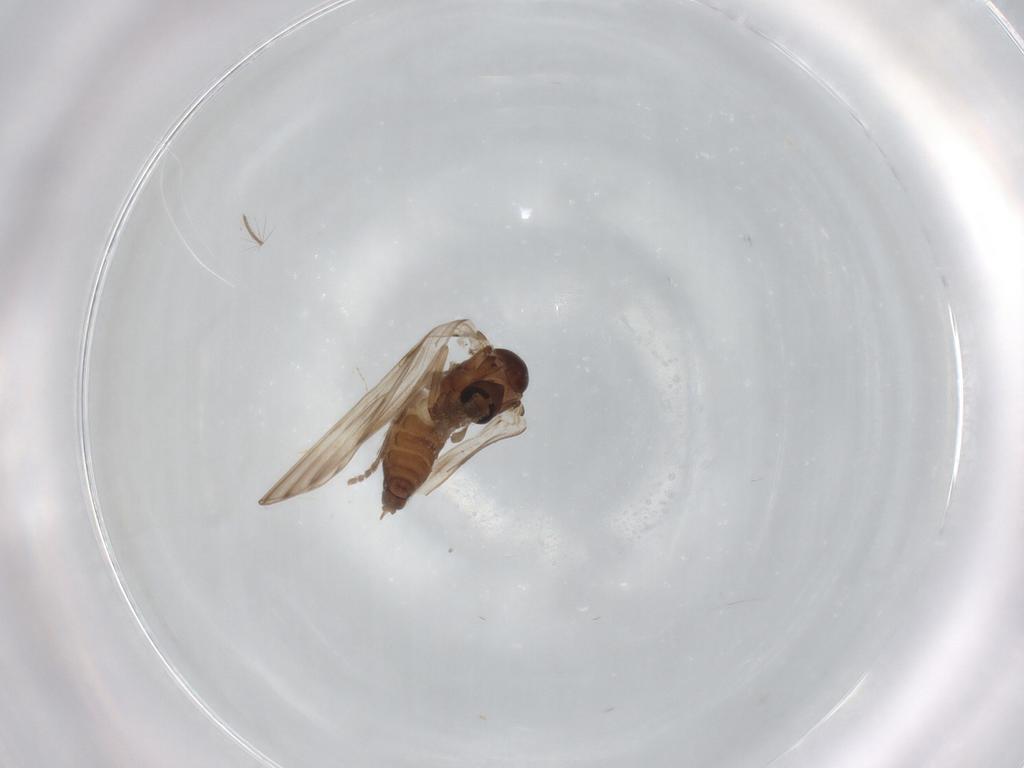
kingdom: Animalia
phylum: Arthropoda
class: Insecta
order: Diptera
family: Psychodidae
